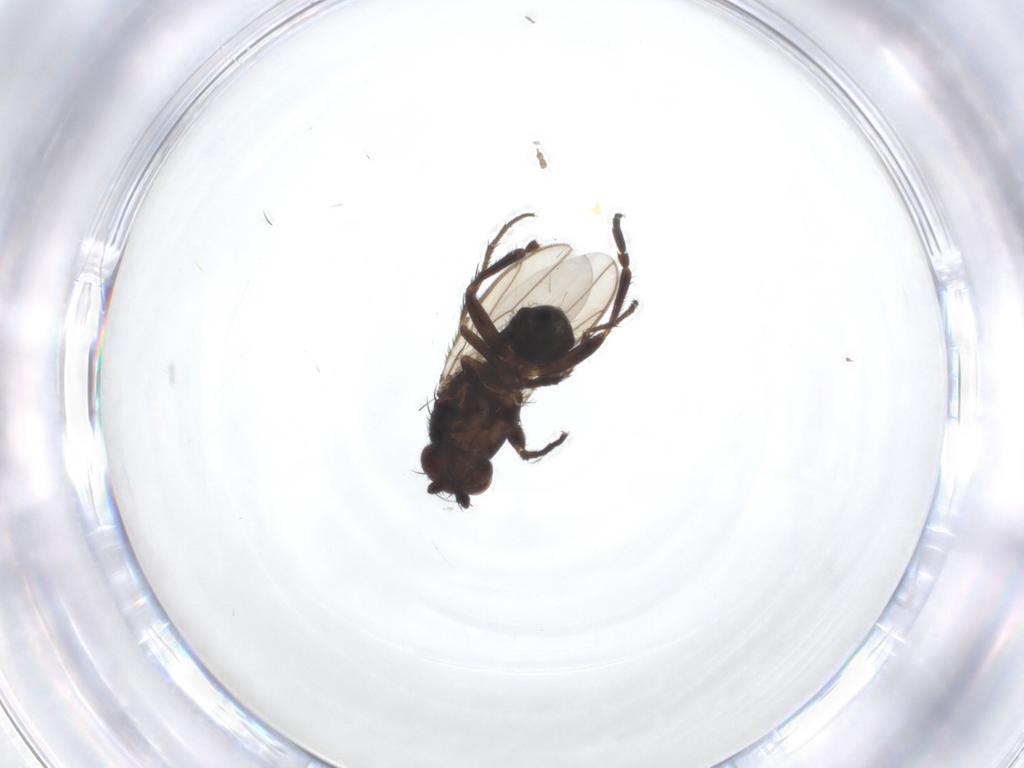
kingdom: Animalia
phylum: Arthropoda
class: Insecta
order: Diptera
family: Sphaeroceridae
